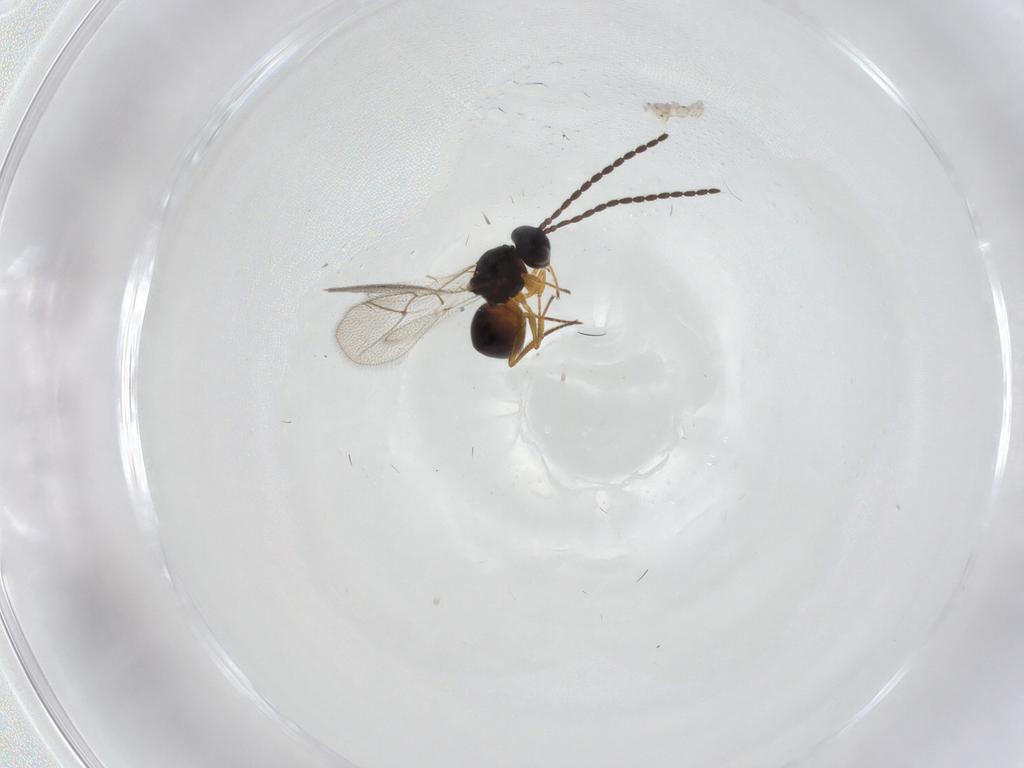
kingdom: Animalia
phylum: Arthropoda
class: Insecta
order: Hymenoptera
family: Figitidae
